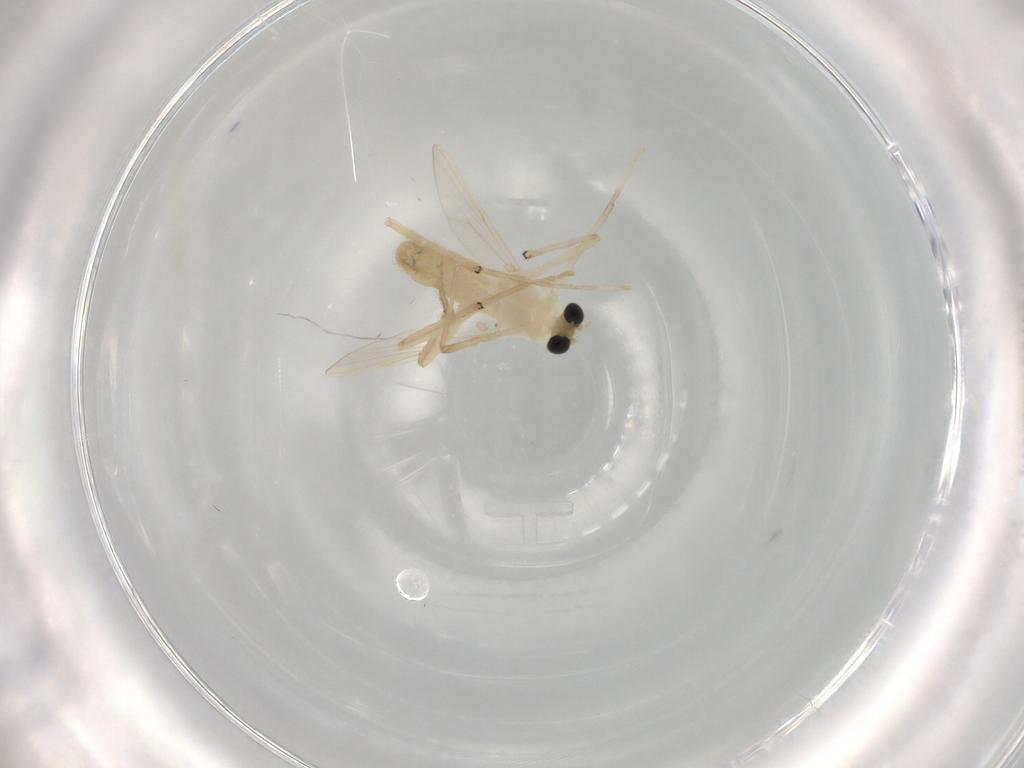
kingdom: Animalia
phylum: Arthropoda
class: Insecta
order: Diptera
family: Chironomidae
